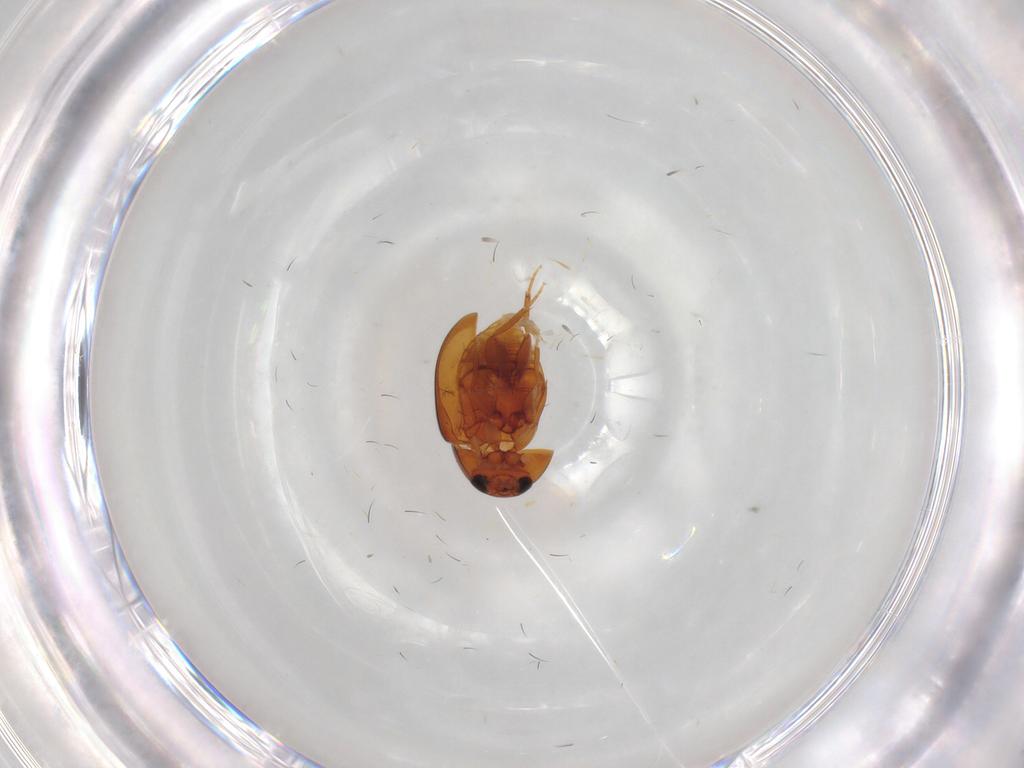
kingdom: Animalia
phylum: Arthropoda
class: Insecta
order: Coleoptera
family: Phalacridae
